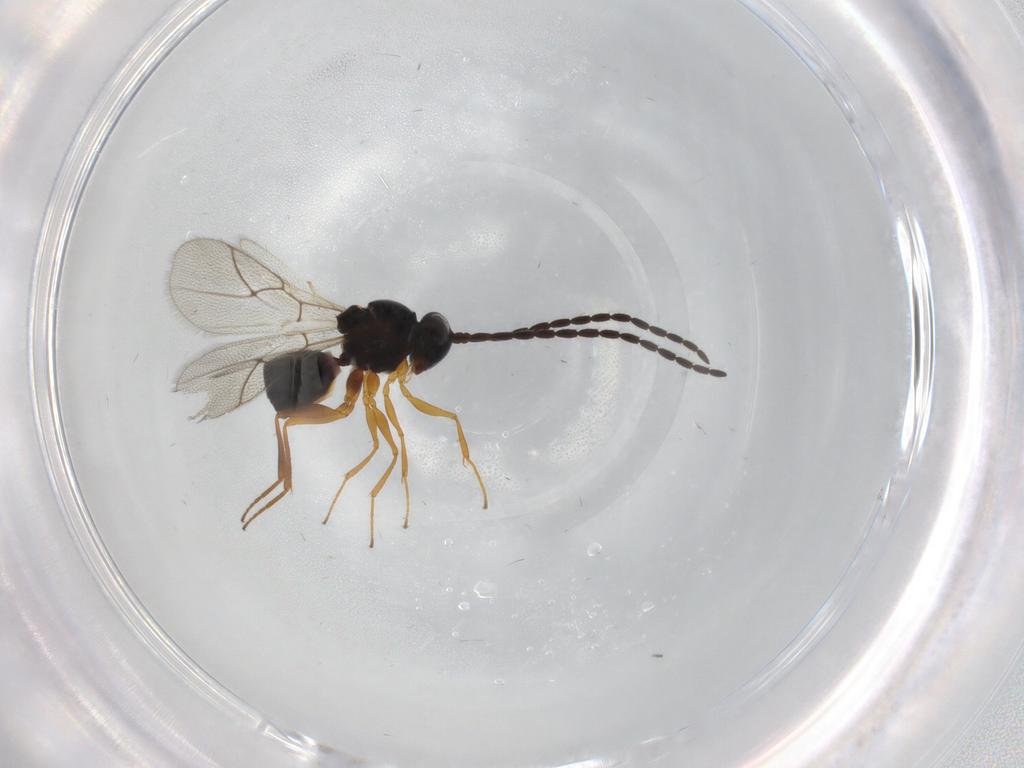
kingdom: Animalia
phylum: Arthropoda
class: Insecta
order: Hymenoptera
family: Figitidae
